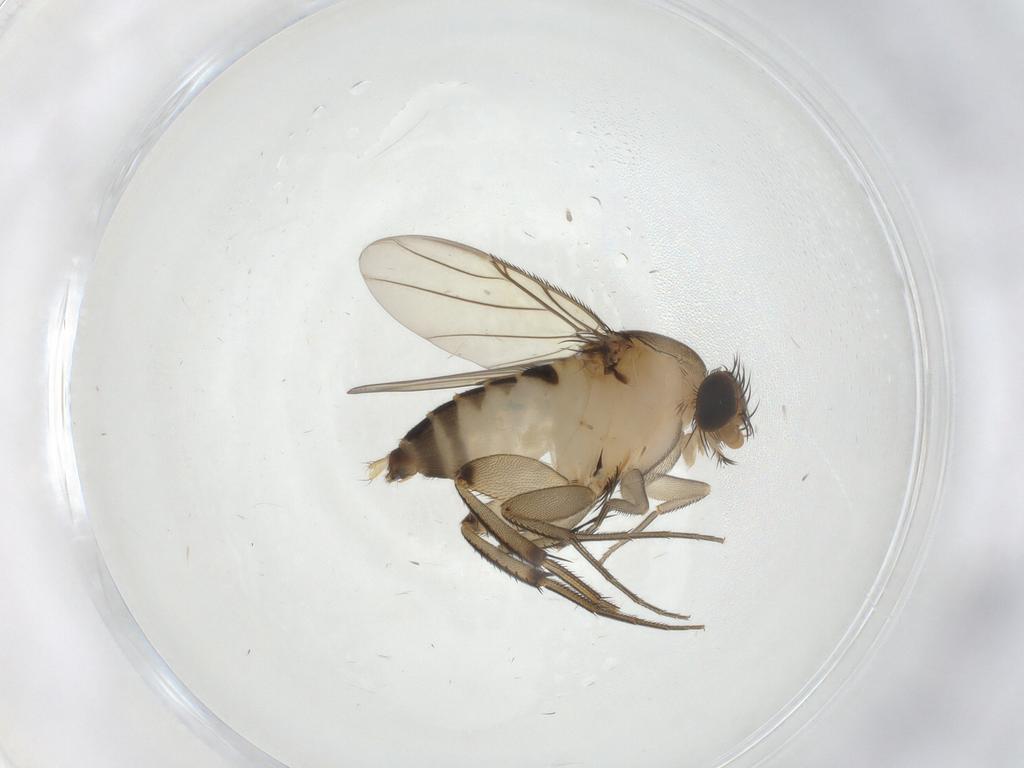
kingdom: Animalia
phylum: Arthropoda
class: Insecta
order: Diptera
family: Phoridae
